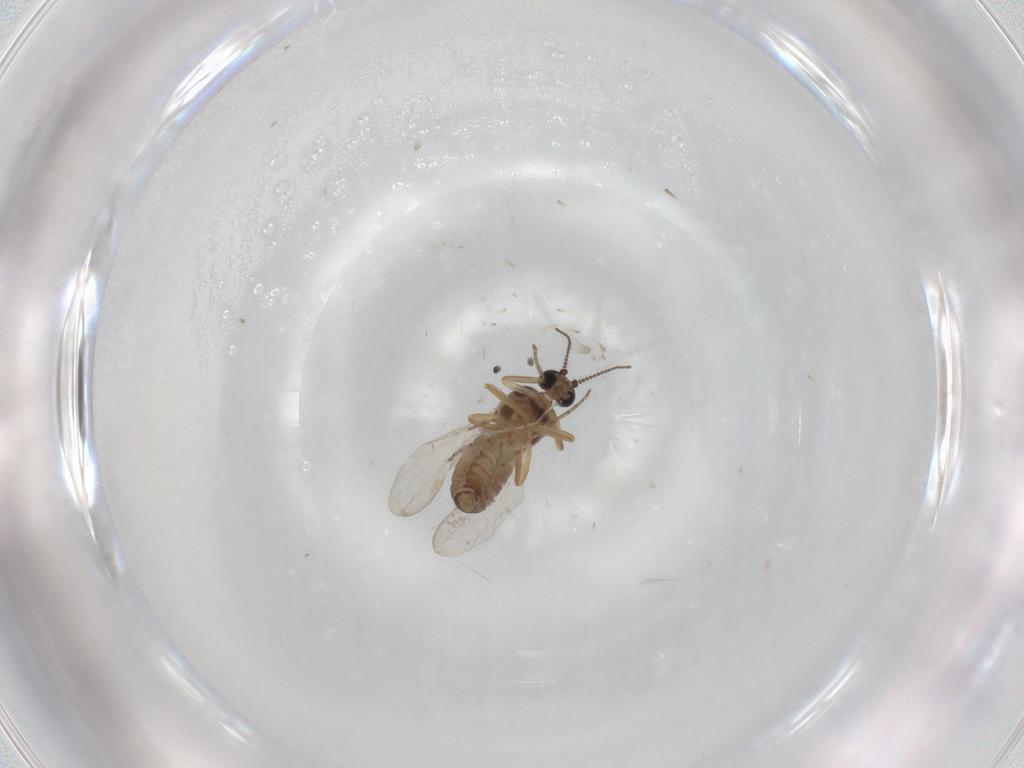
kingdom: Animalia
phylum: Arthropoda
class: Insecta
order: Diptera
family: Ceratopogonidae
